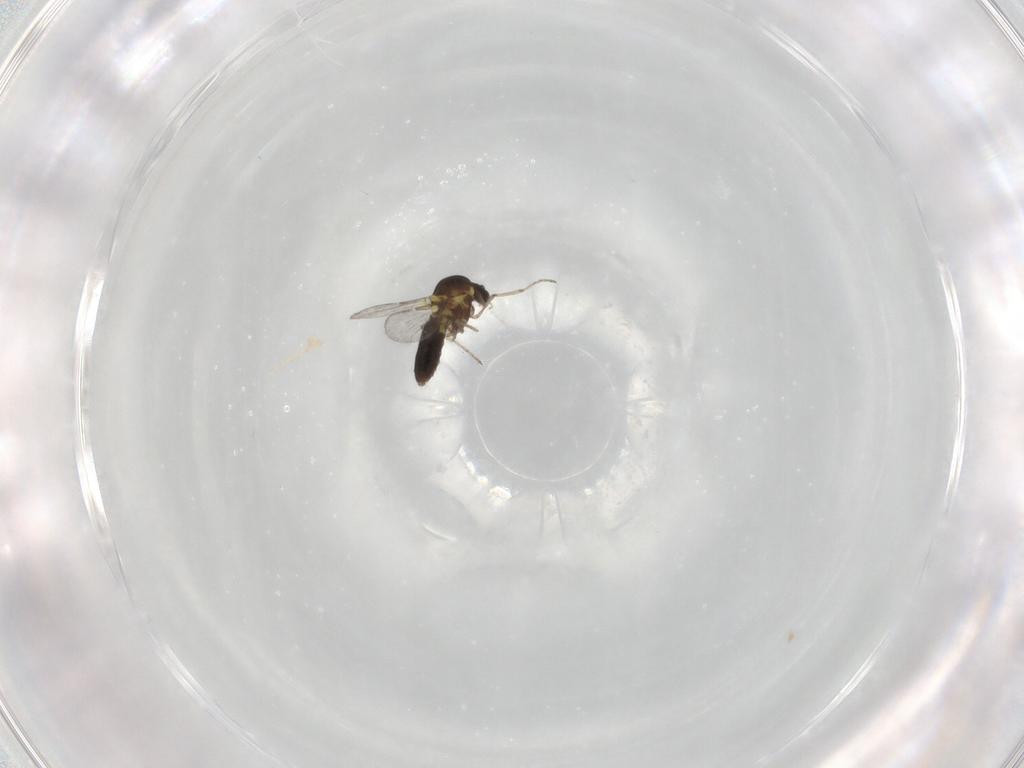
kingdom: Animalia
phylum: Arthropoda
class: Insecta
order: Diptera
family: Ceratopogonidae
